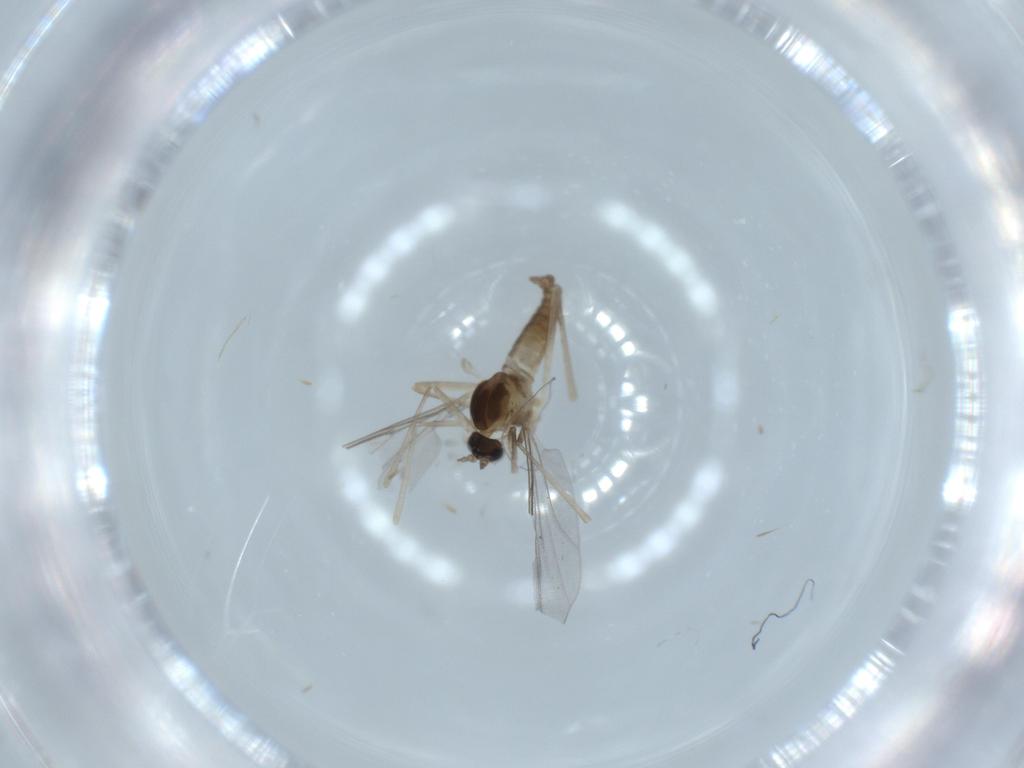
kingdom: Animalia
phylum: Arthropoda
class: Insecta
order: Diptera
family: Cecidomyiidae
